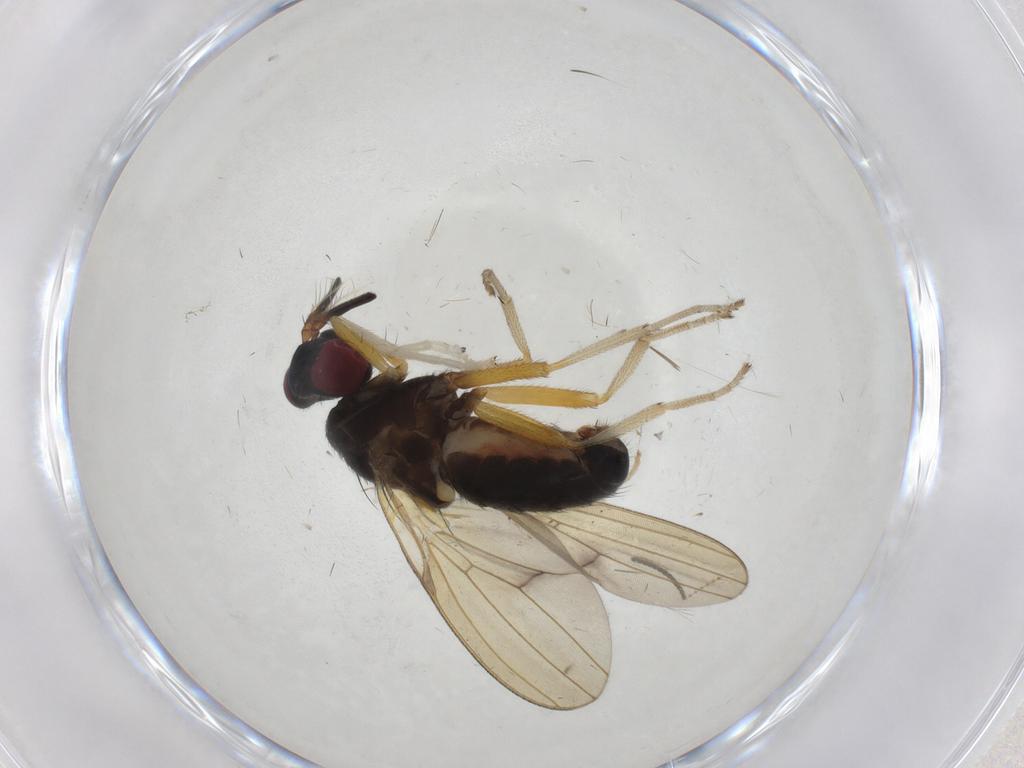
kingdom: Animalia
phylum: Arthropoda
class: Insecta
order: Diptera
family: Lauxaniidae
